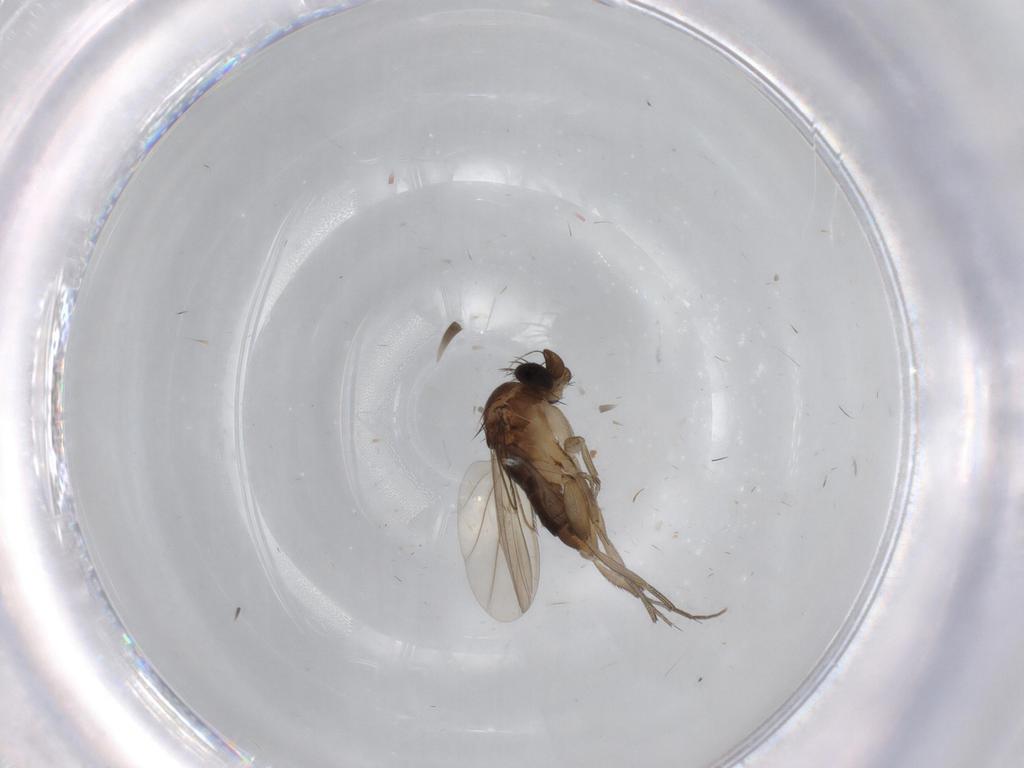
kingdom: Animalia
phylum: Arthropoda
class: Insecta
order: Diptera
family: Phoridae
